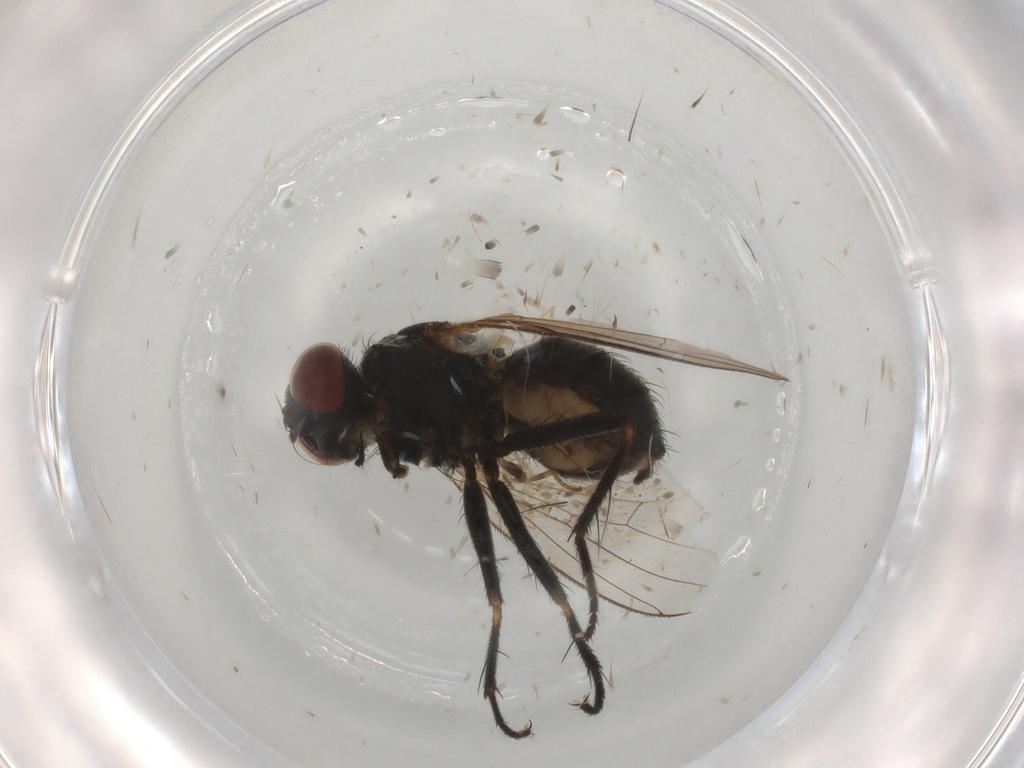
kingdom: Animalia
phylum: Arthropoda
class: Insecta
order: Diptera
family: Muscidae
